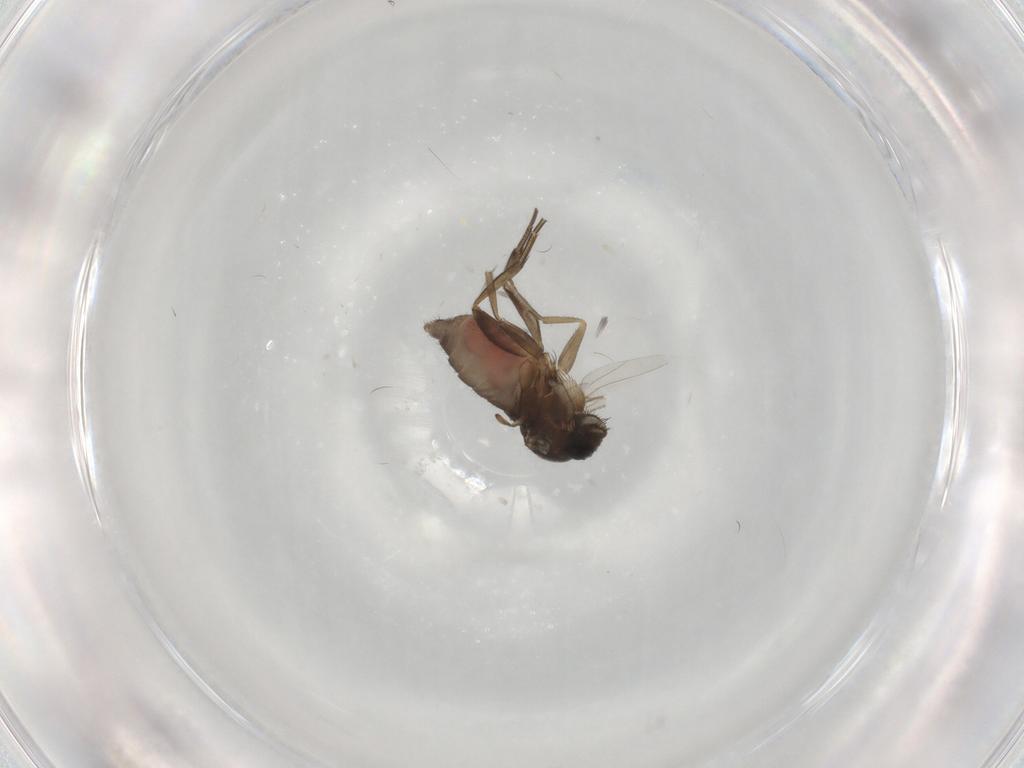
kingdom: Animalia
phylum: Arthropoda
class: Insecta
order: Diptera
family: Phoridae
